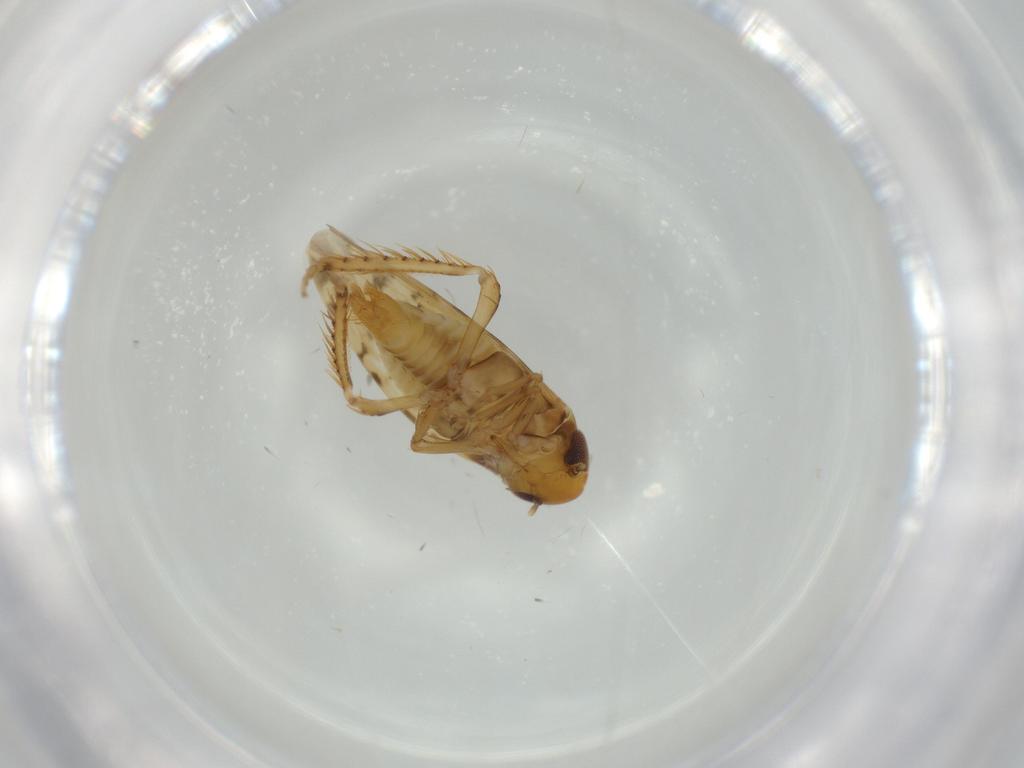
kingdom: Animalia
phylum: Arthropoda
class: Insecta
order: Hemiptera
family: Cicadellidae
